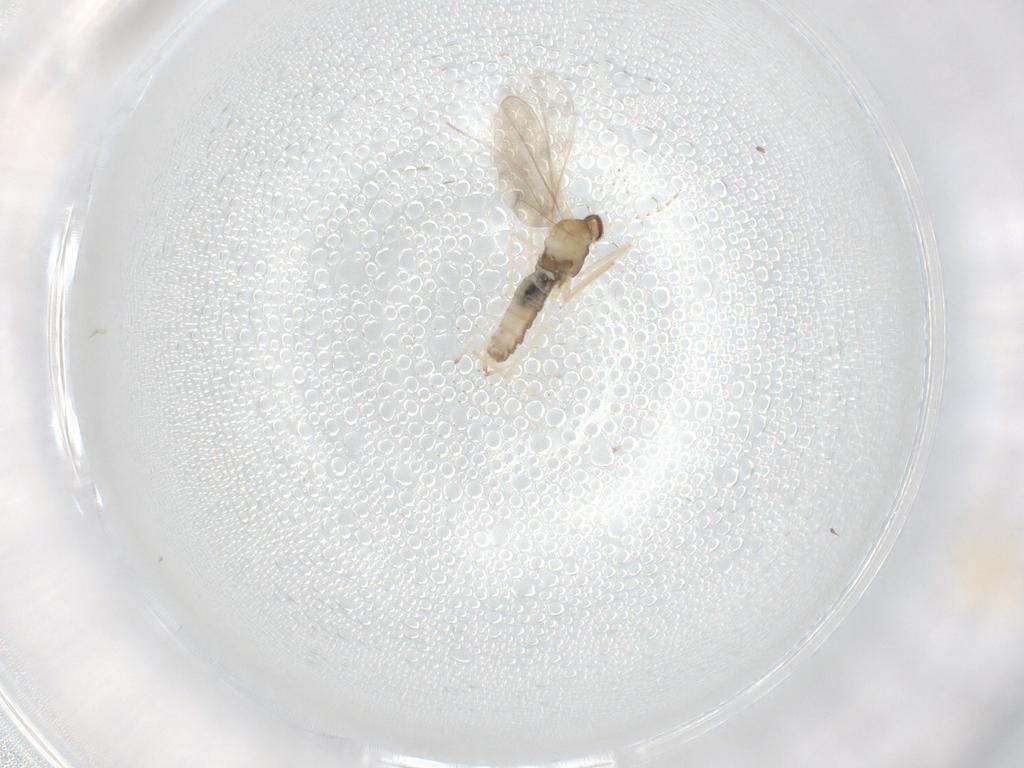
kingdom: Animalia
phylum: Arthropoda
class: Insecta
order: Diptera
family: Cecidomyiidae
